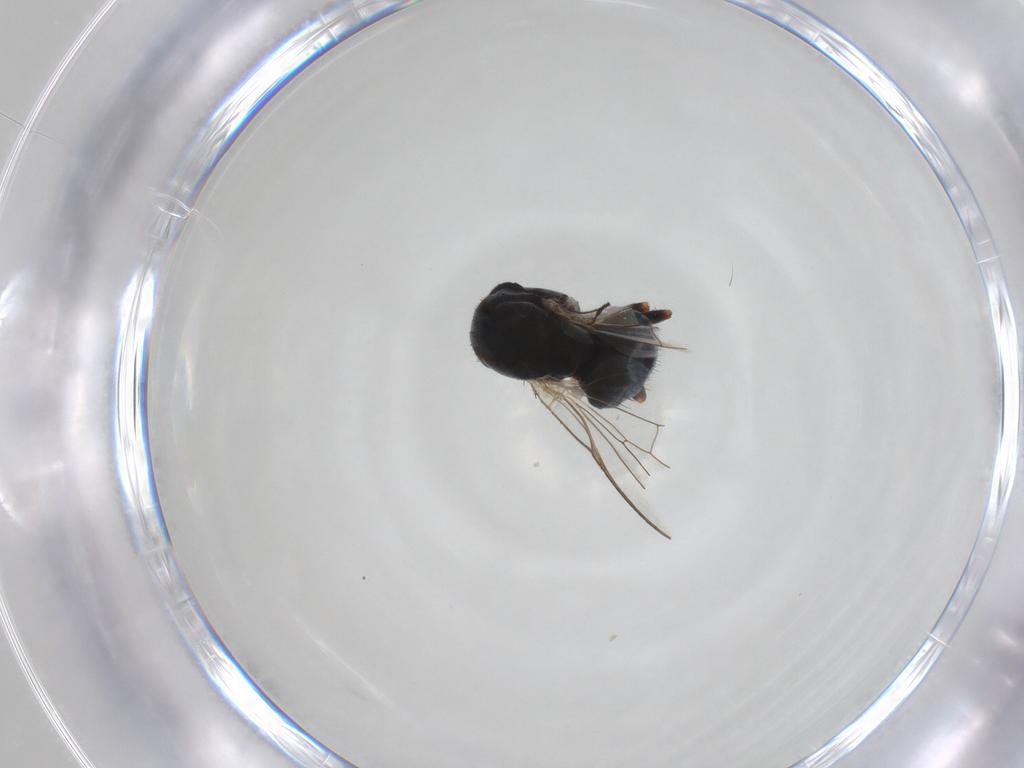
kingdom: Animalia
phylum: Arthropoda
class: Insecta
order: Diptera
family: Chamaemyiidae
